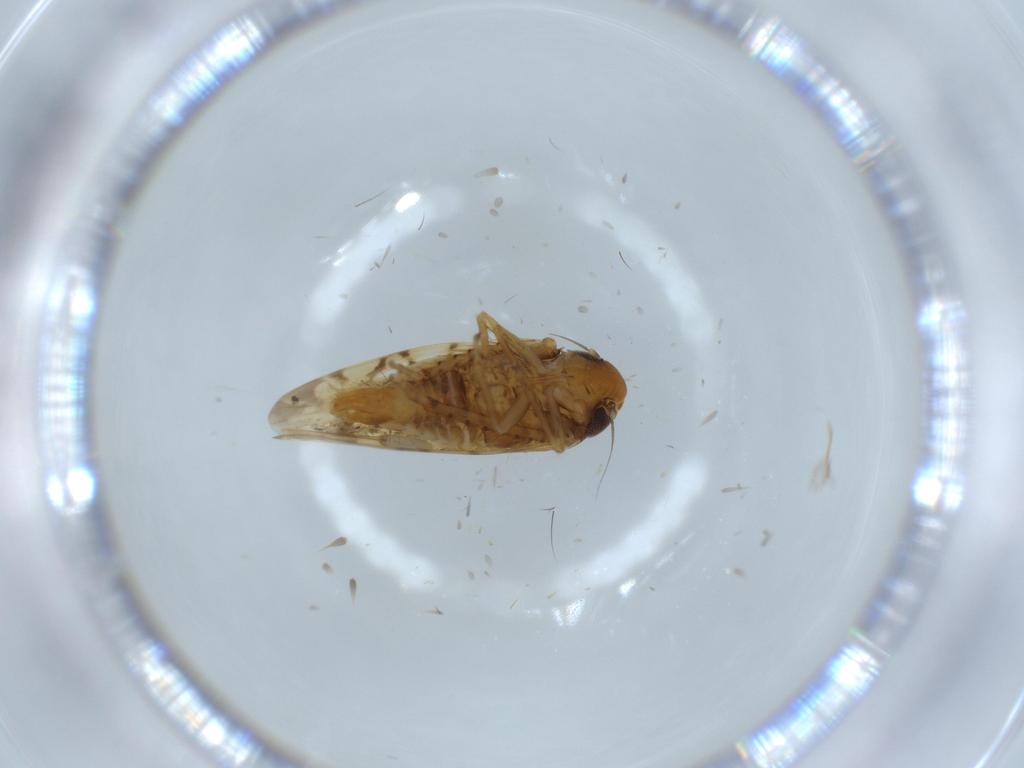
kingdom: Animalia
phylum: Arthropoda
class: Insecta
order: Hemiptera
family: Cicadellidae
